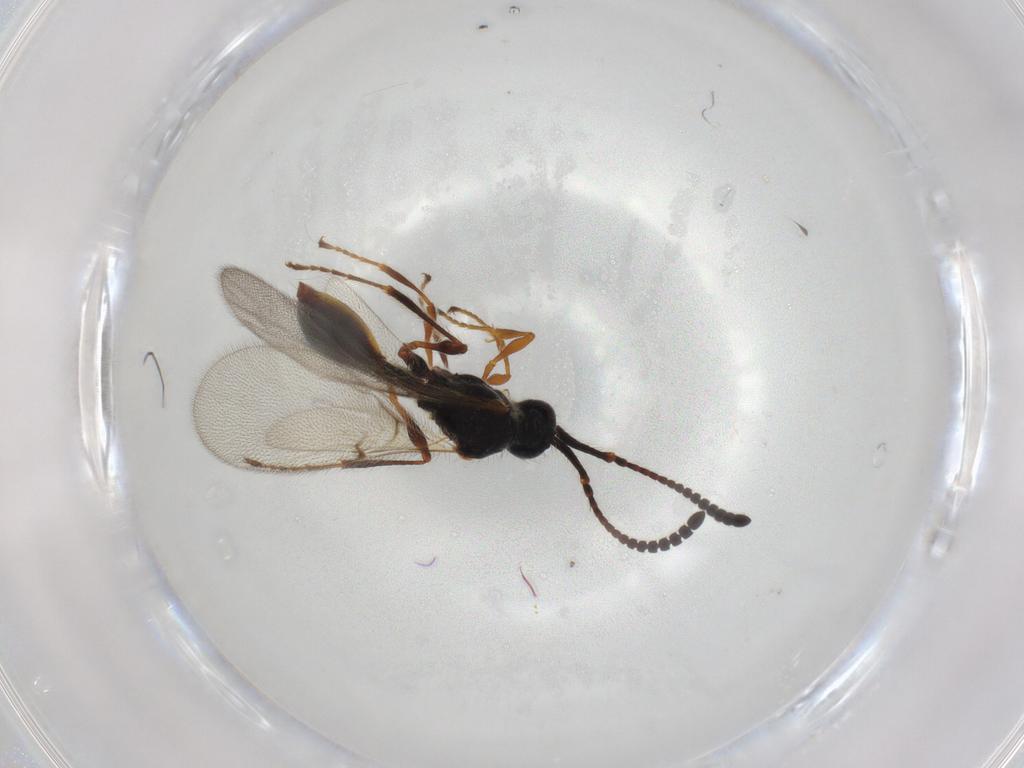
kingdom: Animalia
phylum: Arthropoda
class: Insecta
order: Hymenoptera
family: Diapriidae
